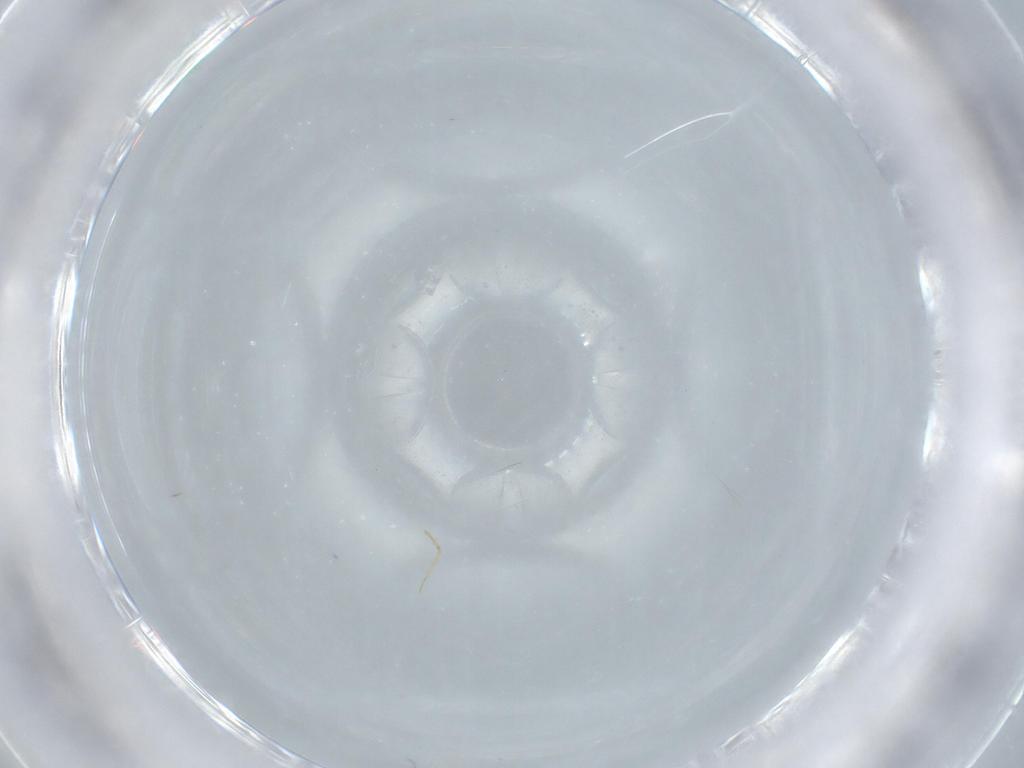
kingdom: Animalia
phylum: Arthropoda
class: Insecta
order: Psocodea
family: Liposcelididae
